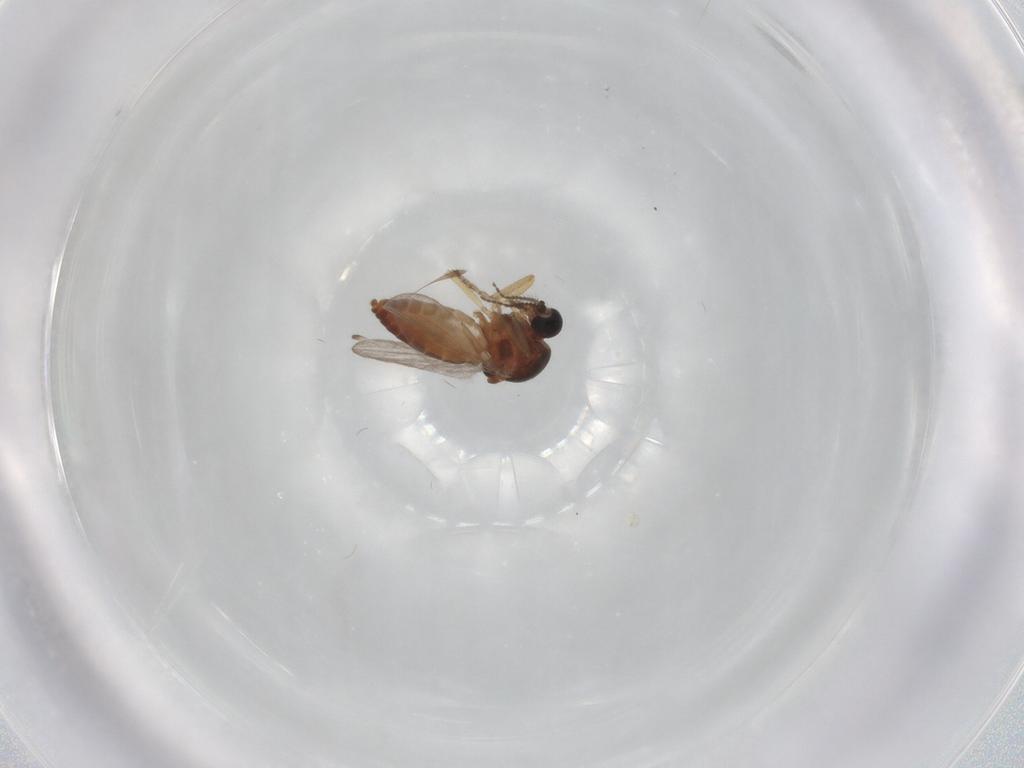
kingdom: Animalia
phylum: Arthropoda
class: Insecta
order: Diptera
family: Ceratopogonidae
